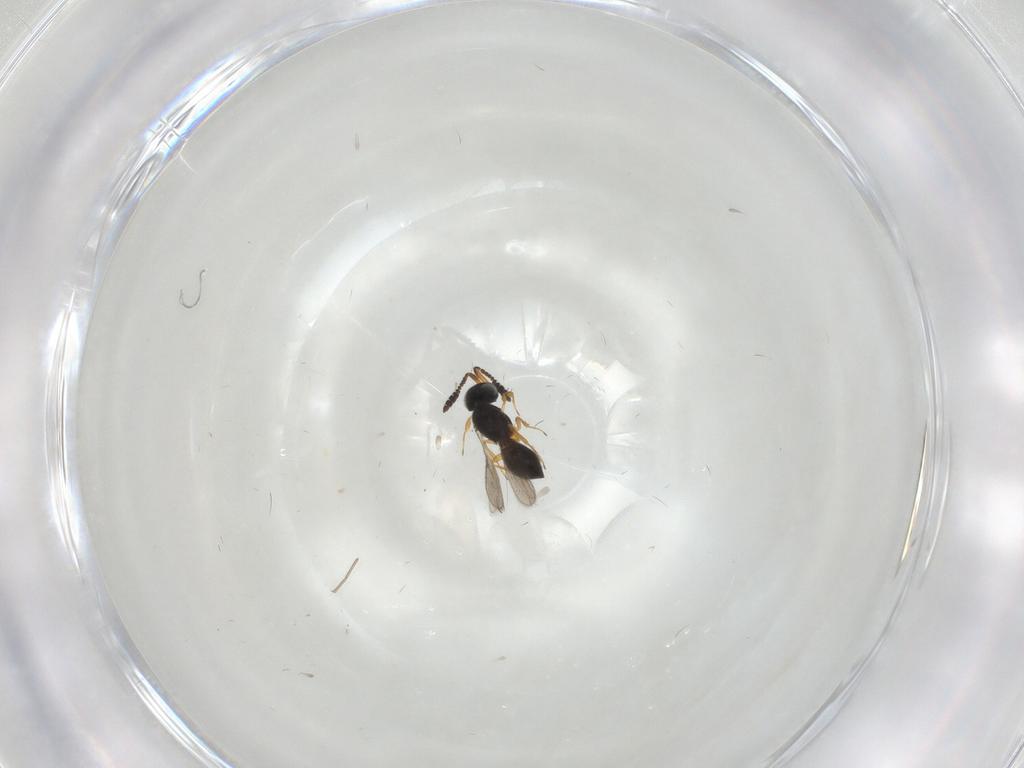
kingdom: Animalia
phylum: Arthropoda
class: Insecta
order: Hymenoptera
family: Scelionidae
